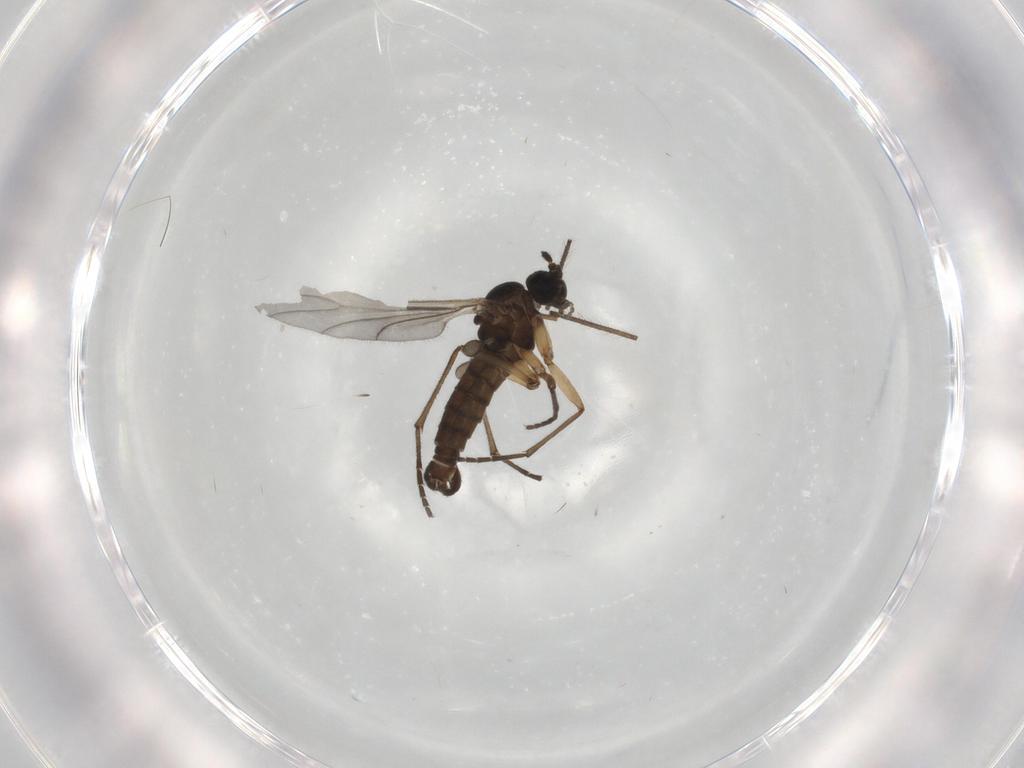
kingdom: Animalia
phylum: Arthropoda
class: Insecta
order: Diptera
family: Sciaridae
